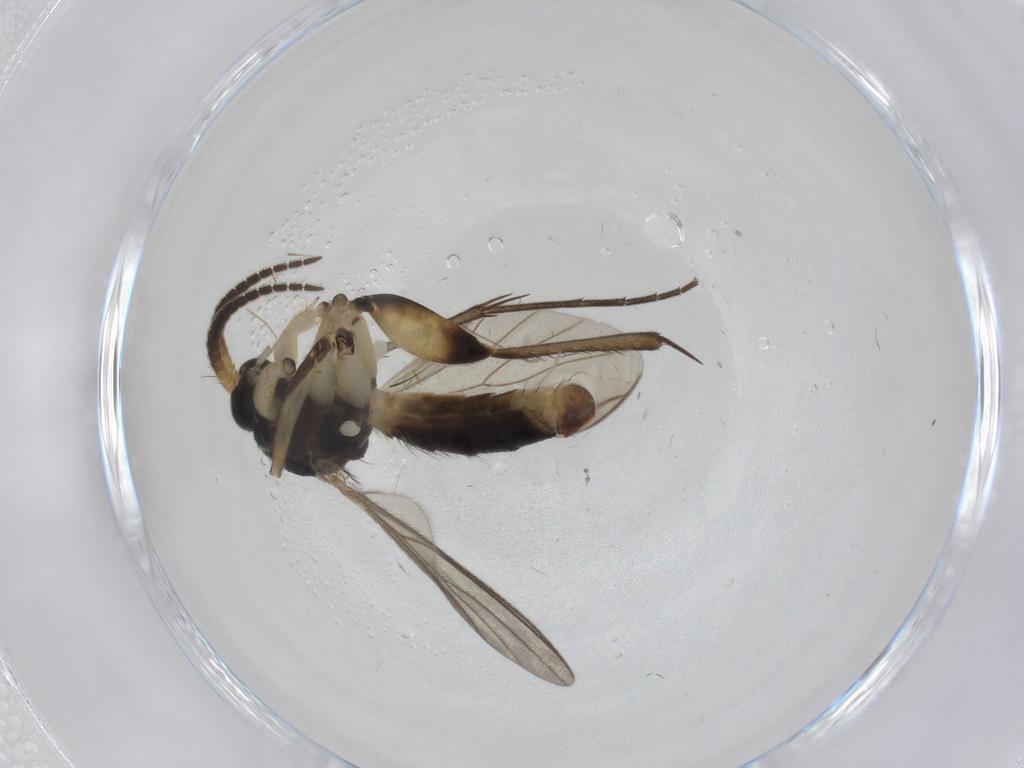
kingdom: Animalia
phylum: Arthropoda
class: Insecta
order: Diptera
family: Mycetophilidae
